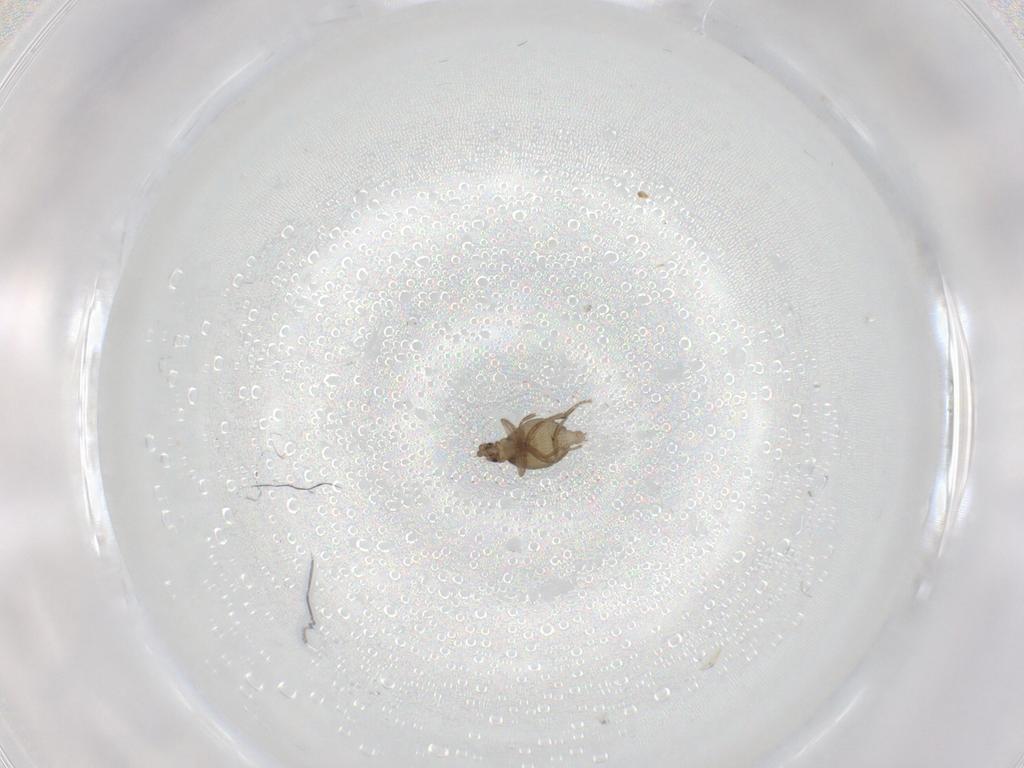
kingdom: Animalia
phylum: Arthropoda
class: Insecta
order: Diptera
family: Phoridae
